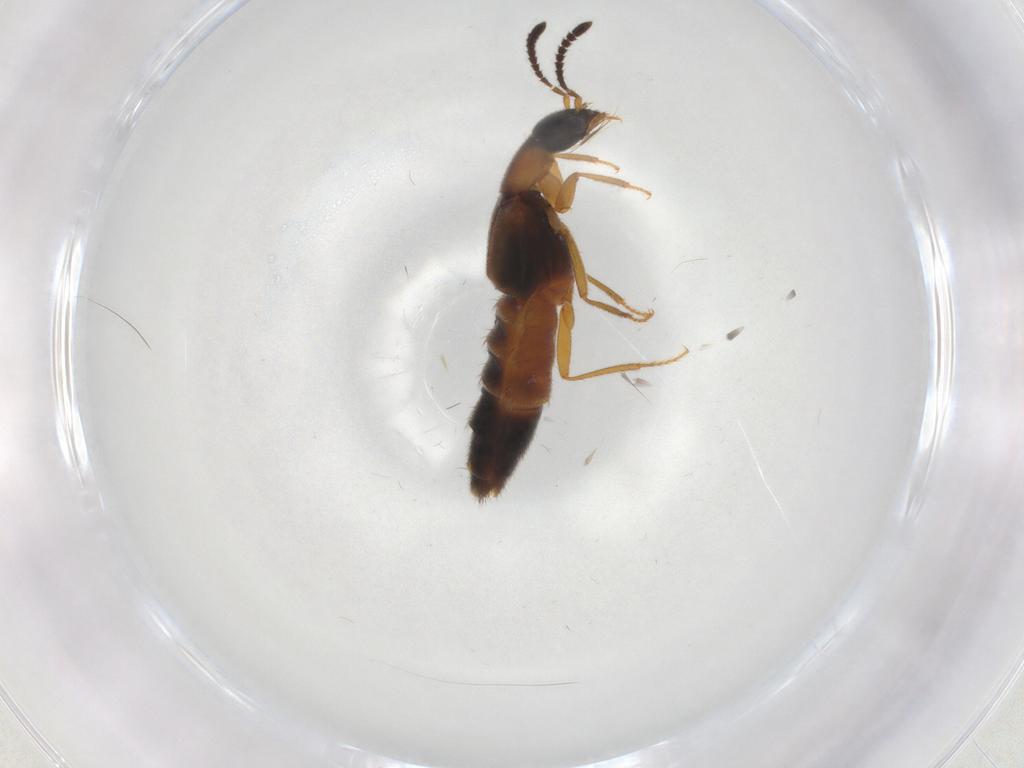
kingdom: Animalia
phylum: Arthropoda
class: Insecta
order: Coleoptera
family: Staphylinidae
